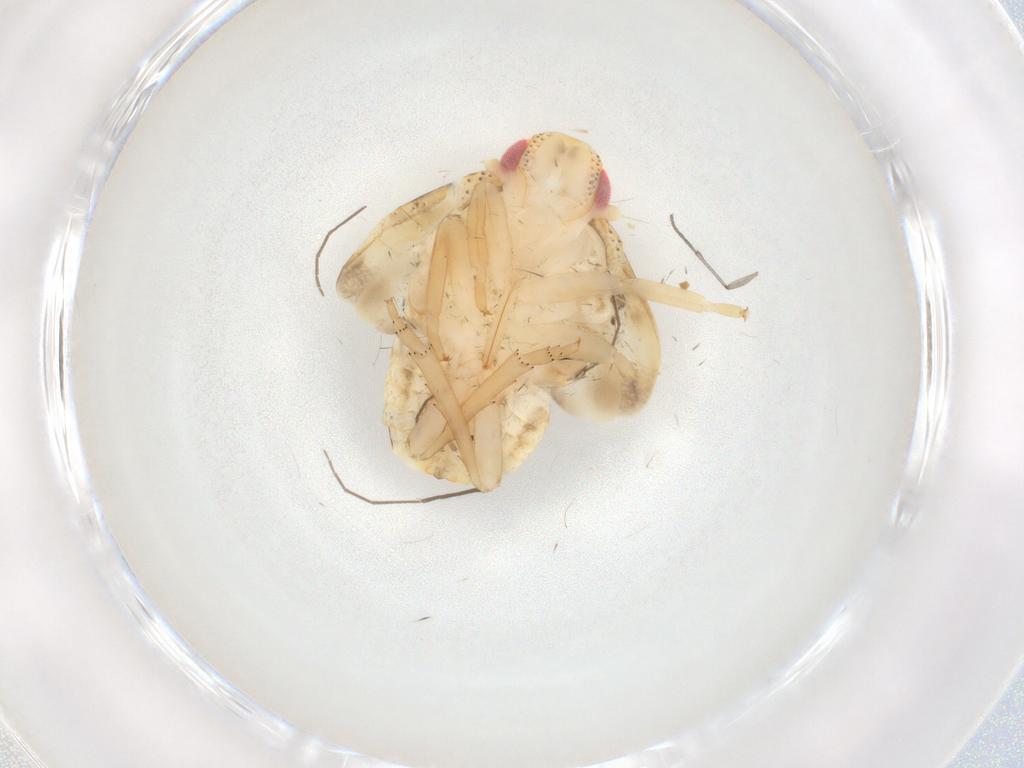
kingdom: Animalia
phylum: Arthropoda
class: Insecta
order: Hemiptera
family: Flatidae
